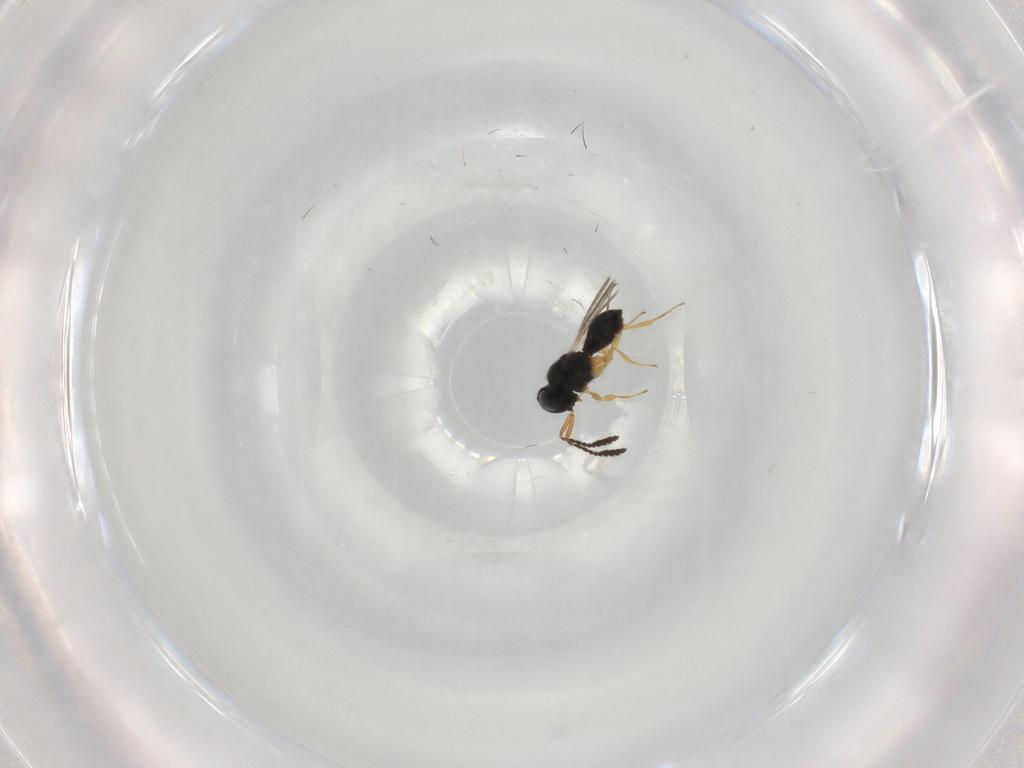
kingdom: Animalia
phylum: Arthropoda
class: Insecta
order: Hymenoptera
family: Scelionidae
